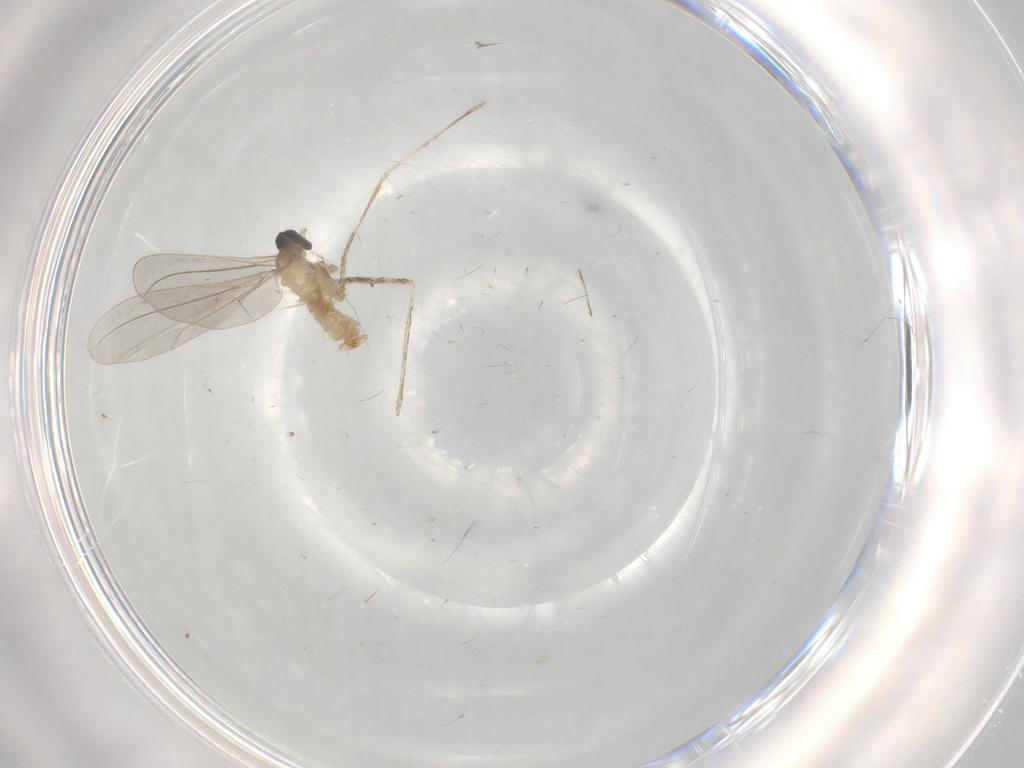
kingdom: Animalia
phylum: Arthropoda
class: Insecta
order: Diptera
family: Cecidomyiidae
